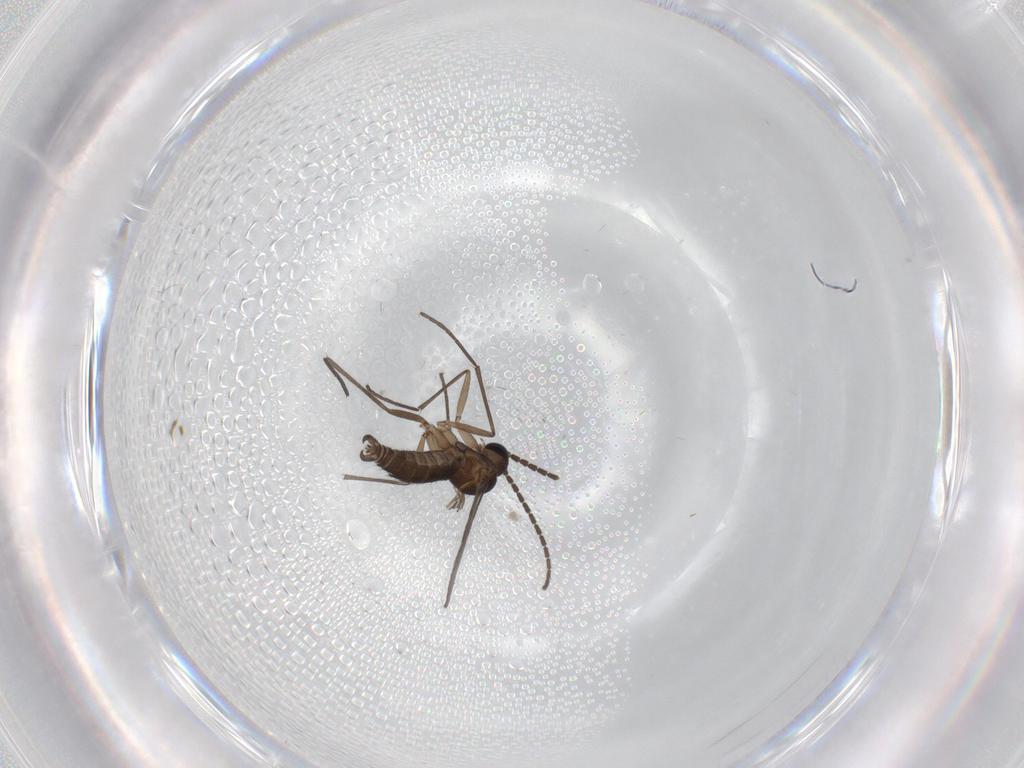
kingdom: Animalia
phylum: Arthropoda
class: Insecta
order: Diptera
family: Sciaridae
